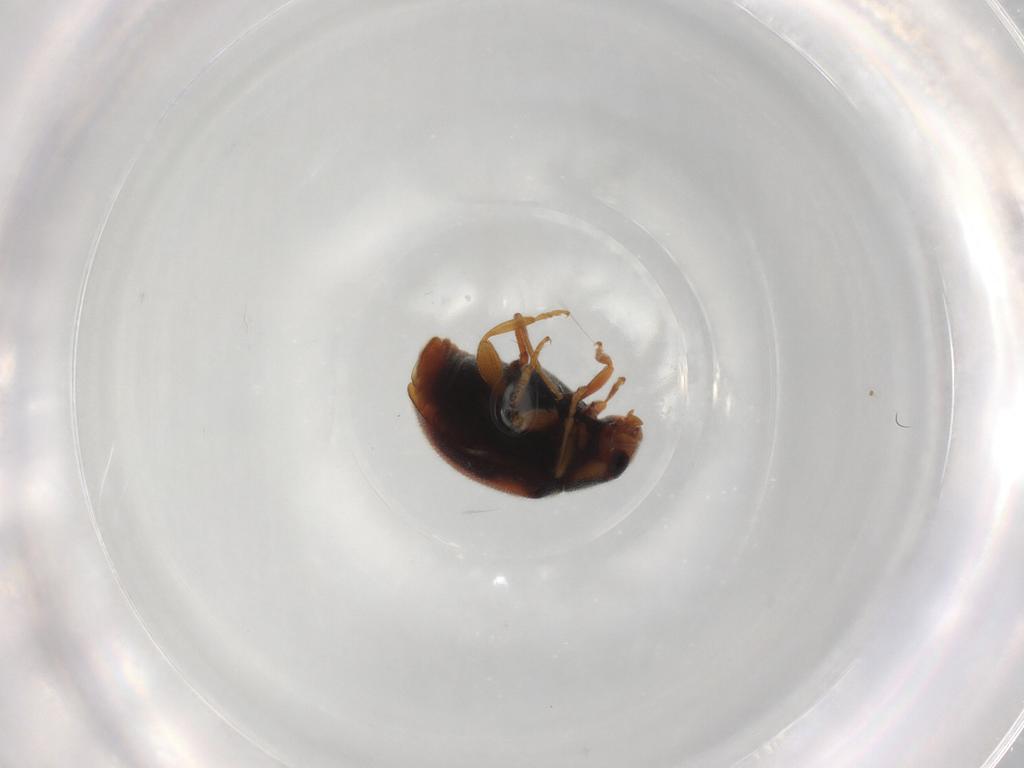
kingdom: Animalia
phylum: Arthropoda
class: Insecta
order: Coleoptera
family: Coccinellidae
